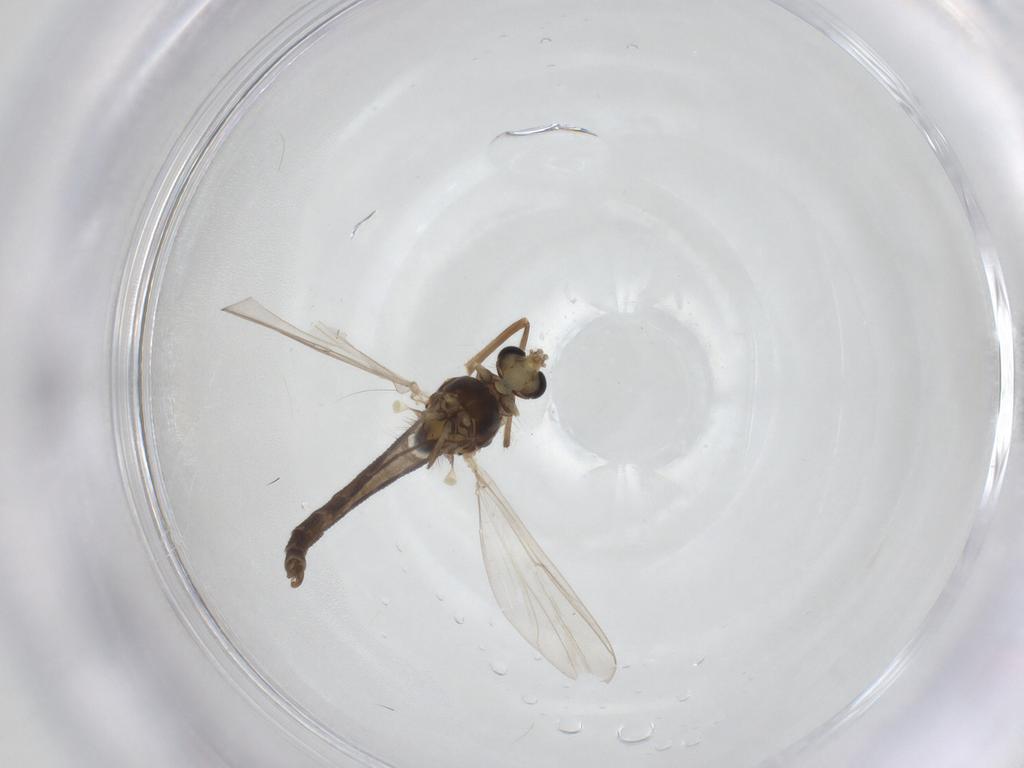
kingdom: Animalia
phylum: Arthropoda
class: Insecta
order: Diptera
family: Chironomidae
